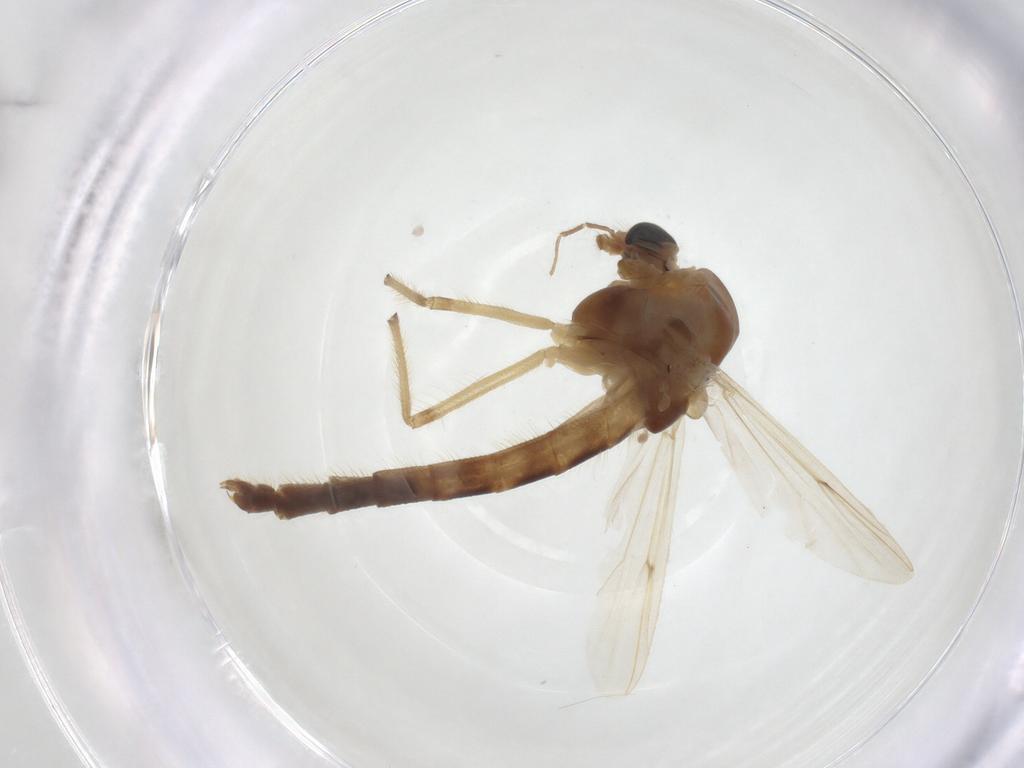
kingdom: Animalia
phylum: Arthropoda
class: Insecta
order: Diptera
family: Chironomidae
